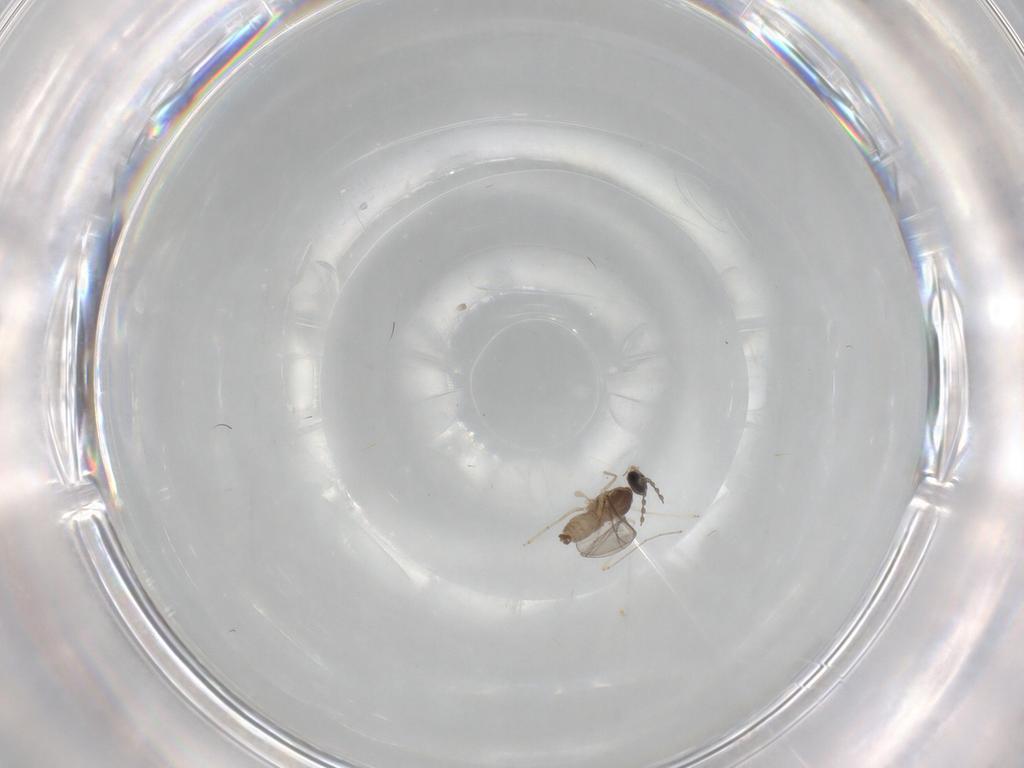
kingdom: Animalia
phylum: Arthropoda
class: Insecta
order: Diptera
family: Cecidomyiidae
